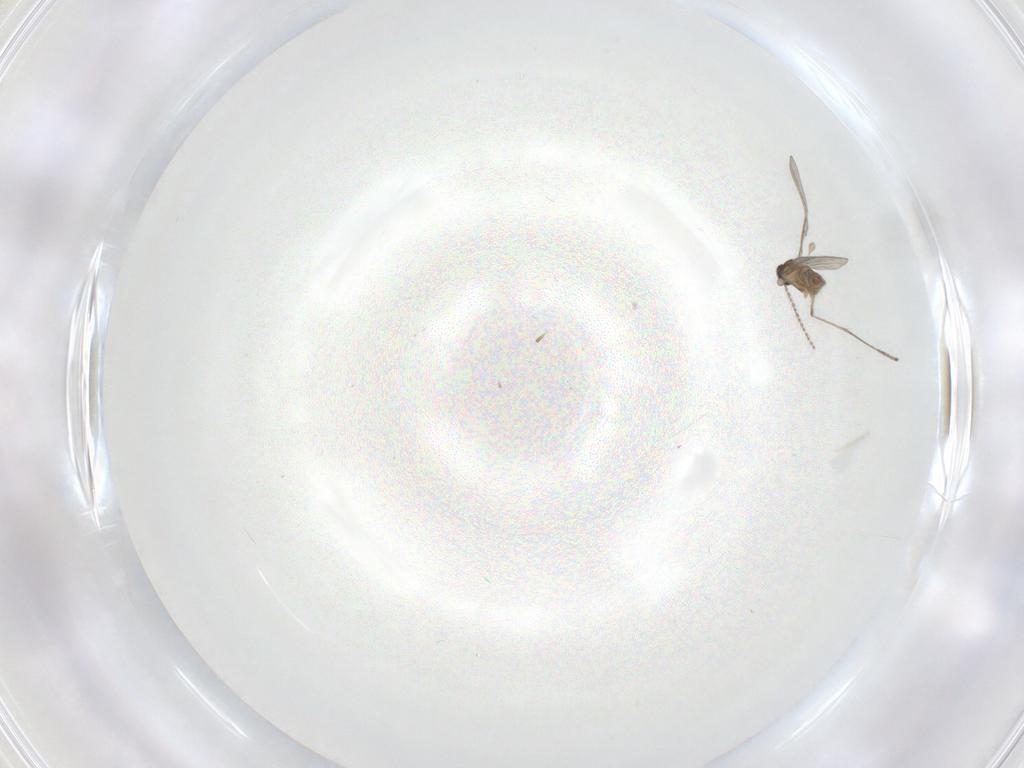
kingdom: Animalia
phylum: Arthropoda
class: Insecta
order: Diptera
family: Cecidomyiidae
